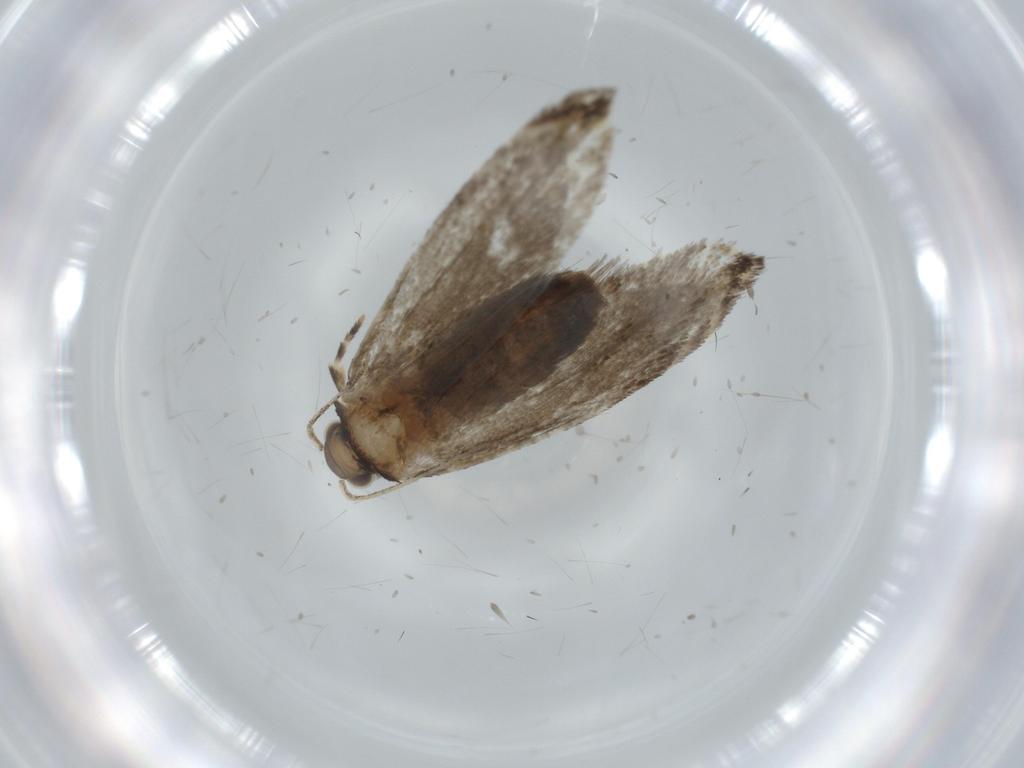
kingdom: Animalia
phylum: Arthropoda
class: Insecta
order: Lepidoptera
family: Tineidae
